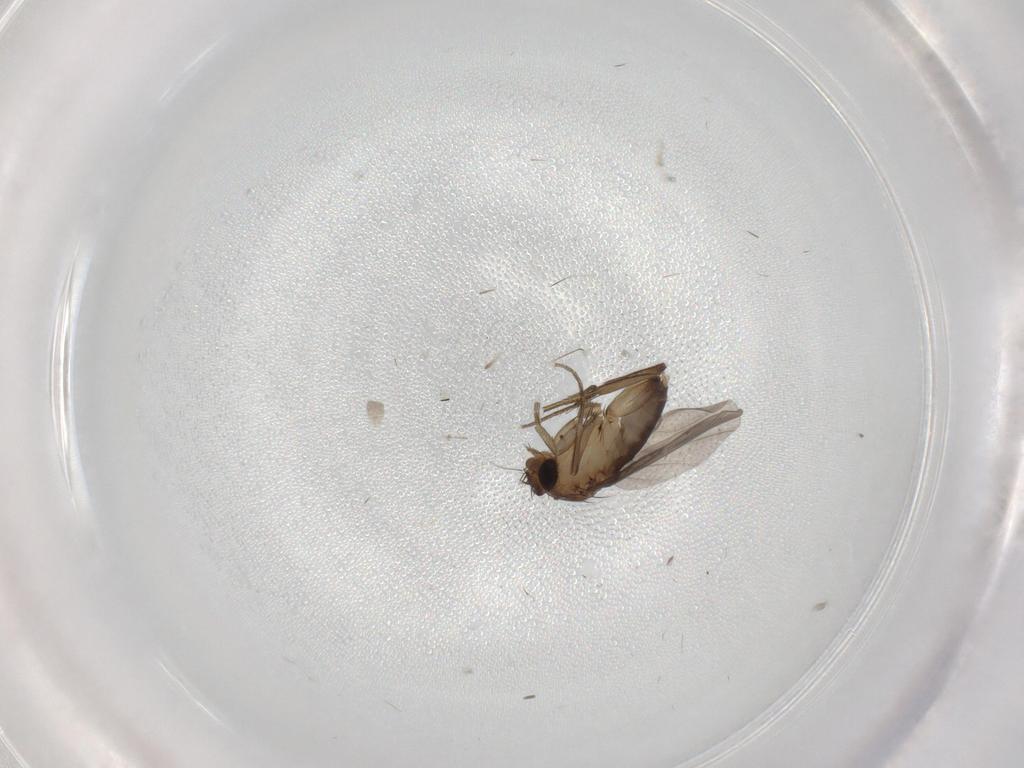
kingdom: Animalia
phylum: Arthropoda
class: Insecta
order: Diptera
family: Phoridae
